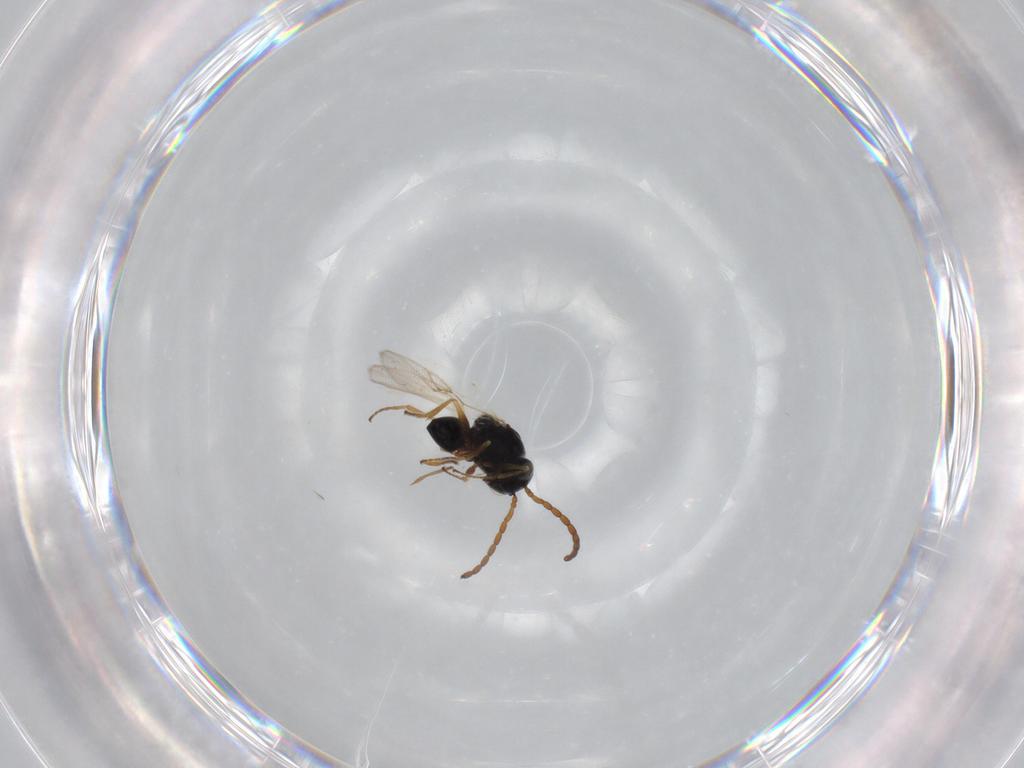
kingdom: Animalia
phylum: Arthropoda
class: Insecta
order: Hymenoptera
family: Figitidae
